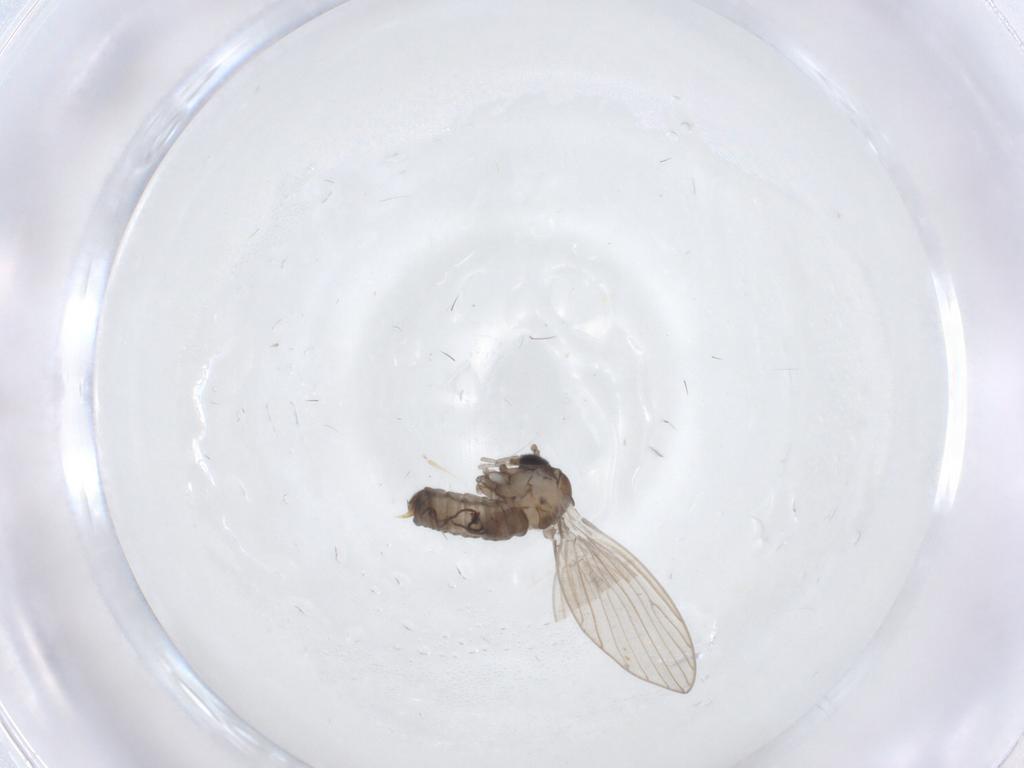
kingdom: Animalia
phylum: Arthropoda
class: Insecta
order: Diptera
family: Psychodidae
